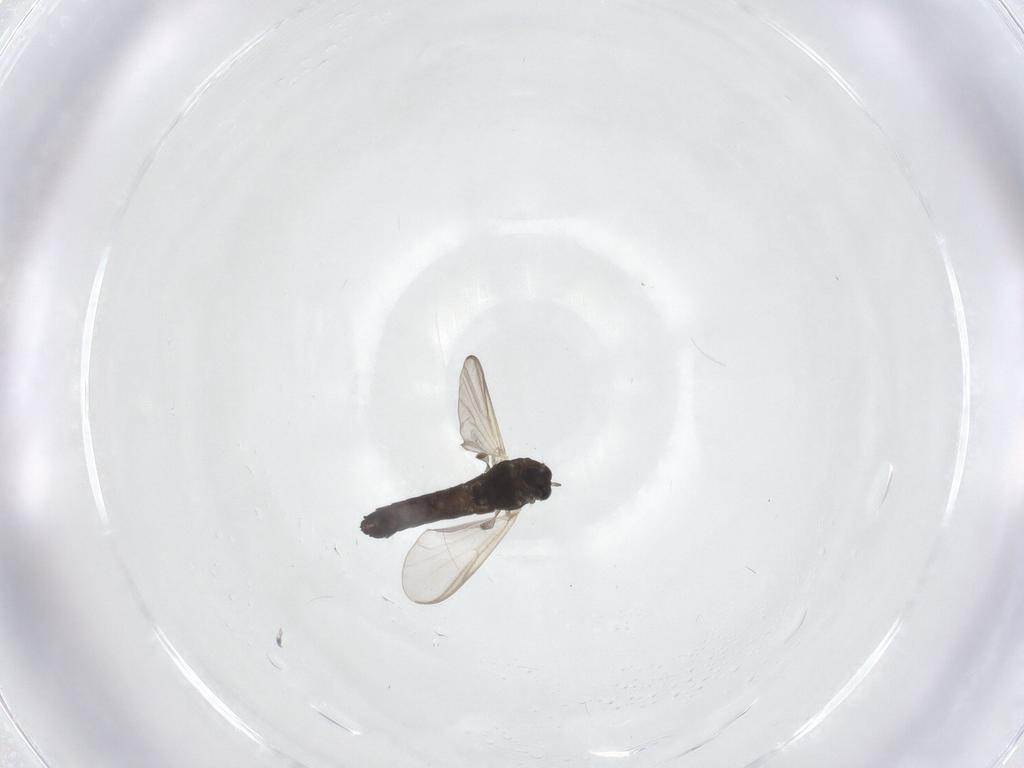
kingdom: Animalia
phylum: Arthropoda
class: Insecta
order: Diptera
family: Chironomidae
